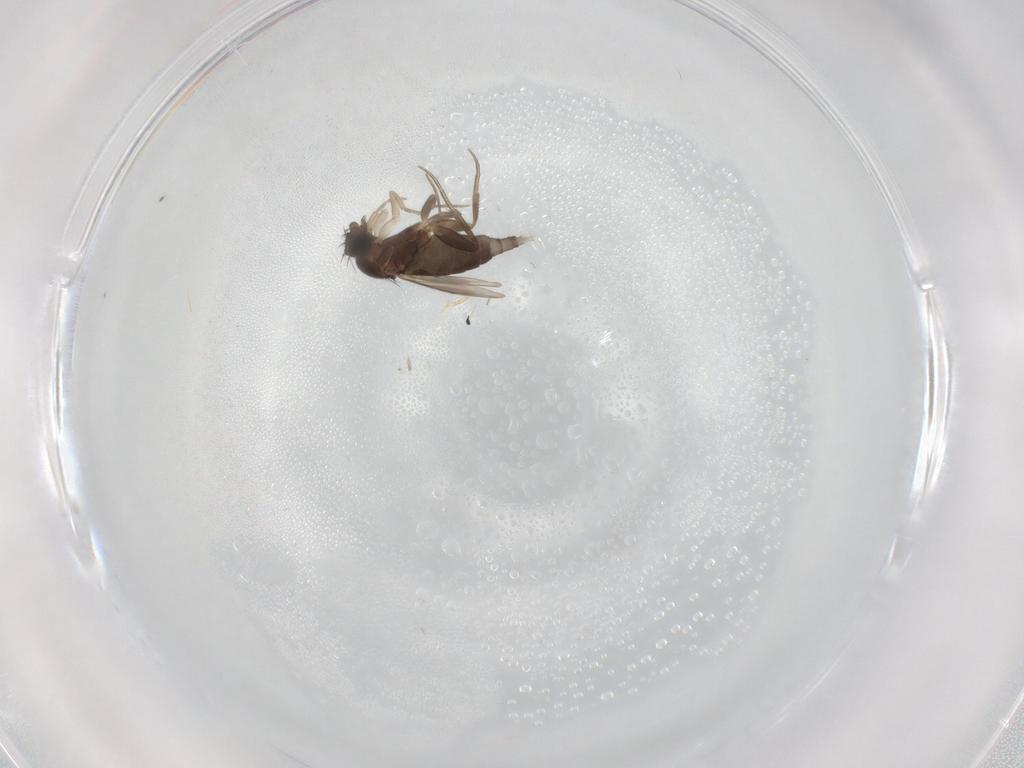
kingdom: Animalia
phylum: Arthropoda
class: Insecta
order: Diptera
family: Phoridae
